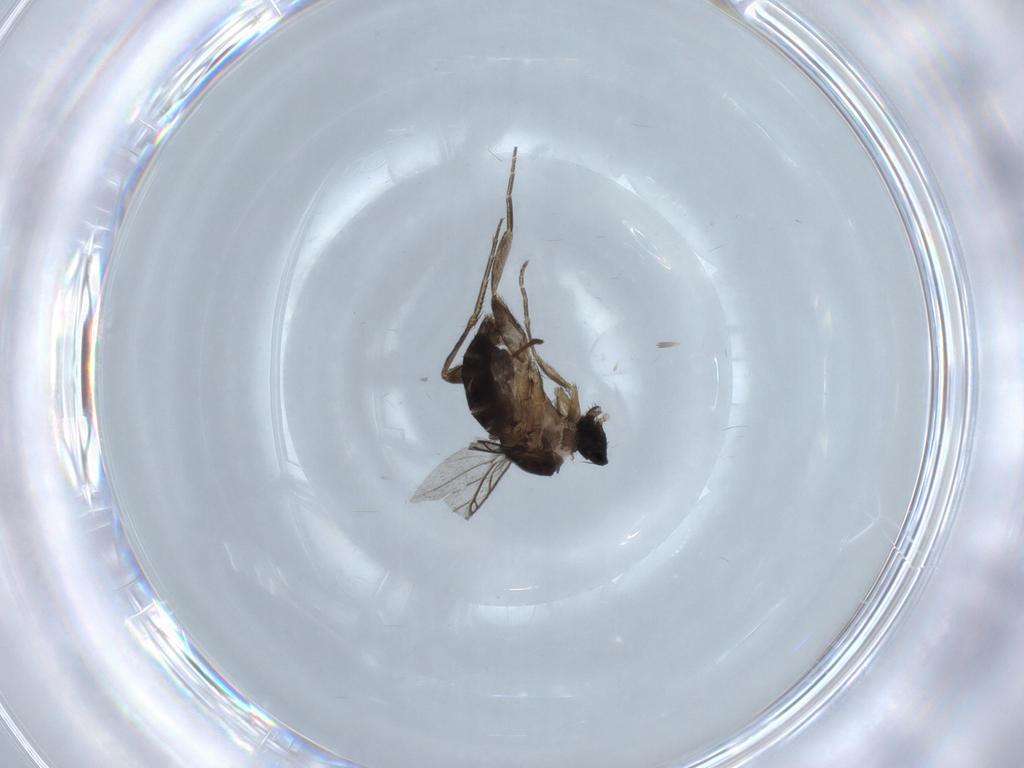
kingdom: Animalia
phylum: Arthropoda
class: Insecta
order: Diptera
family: Phoridae
